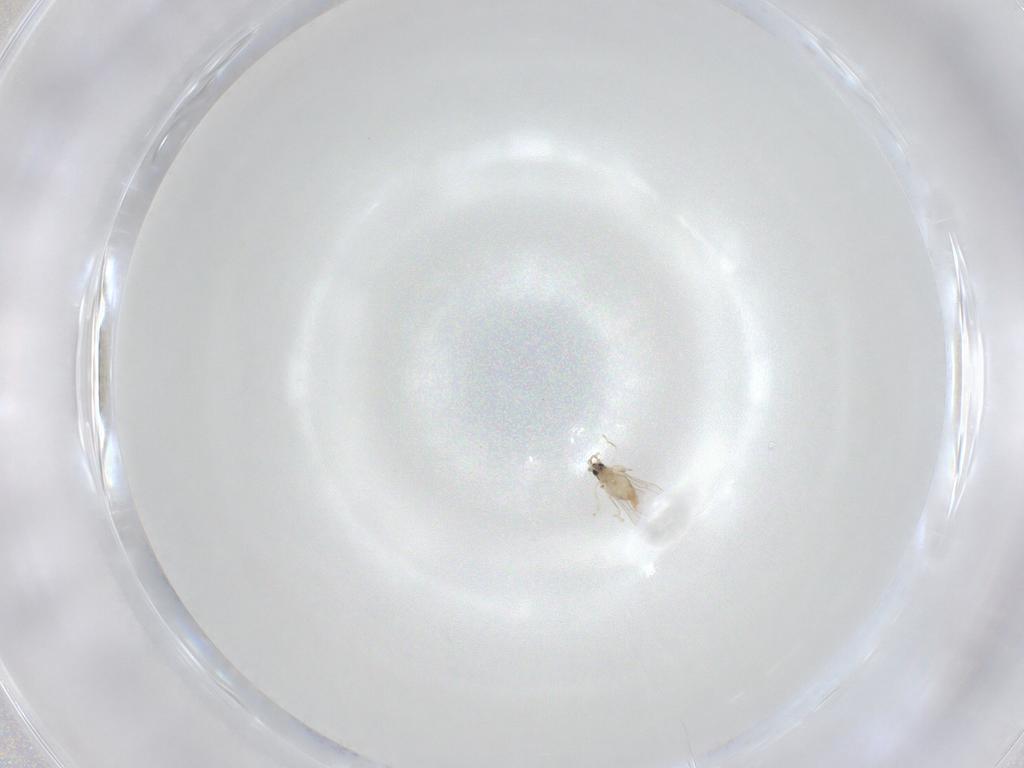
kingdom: Animalia
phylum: Arthropoda
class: Insecta
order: Diptera
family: Cecidomyiidae
